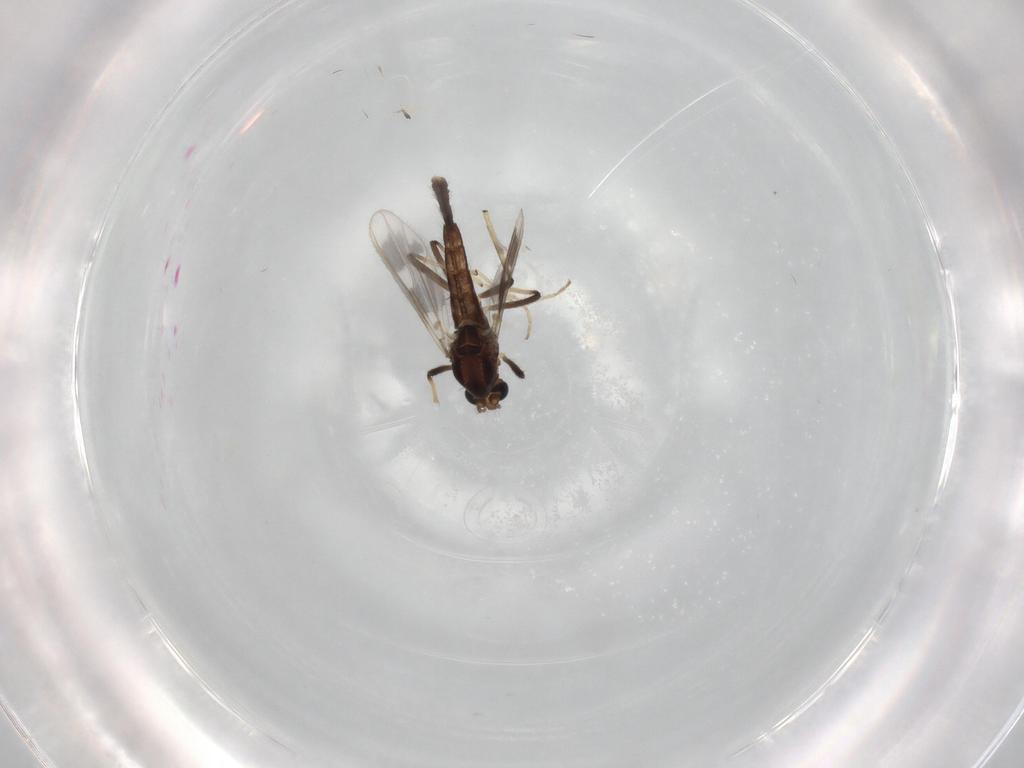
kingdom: Animalia
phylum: Arthropoda
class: Insecta
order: Diptera
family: Chironomidae
